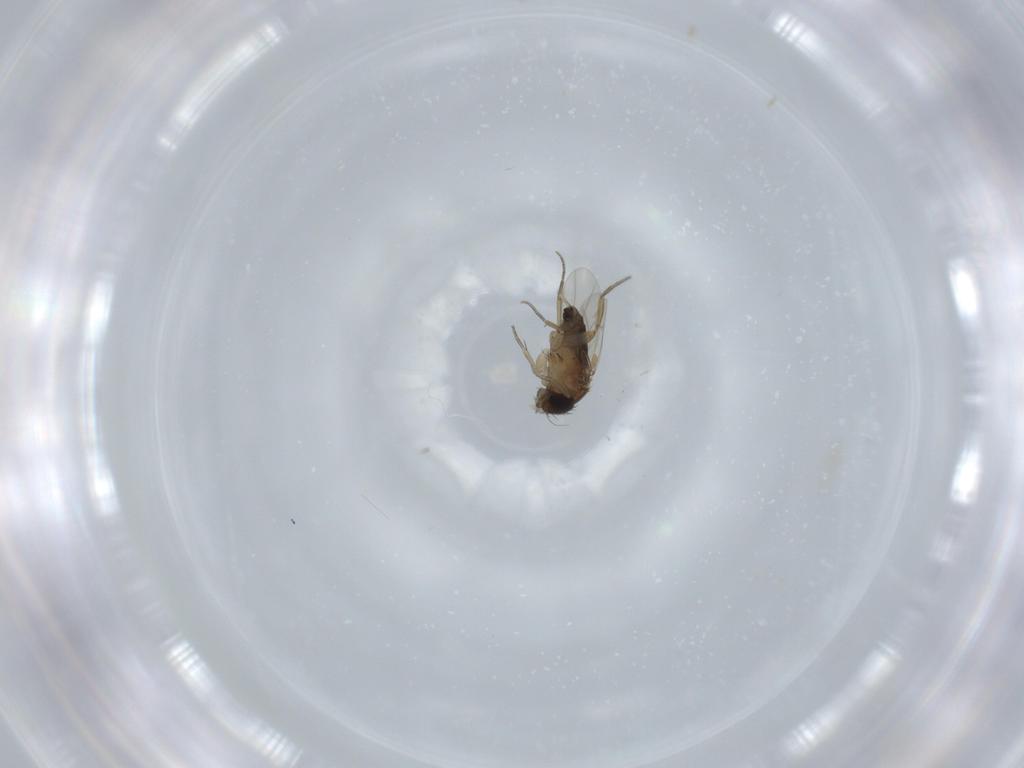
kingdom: Animalia
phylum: Arthropoda
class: Insecta
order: Diptera
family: Phoridae
